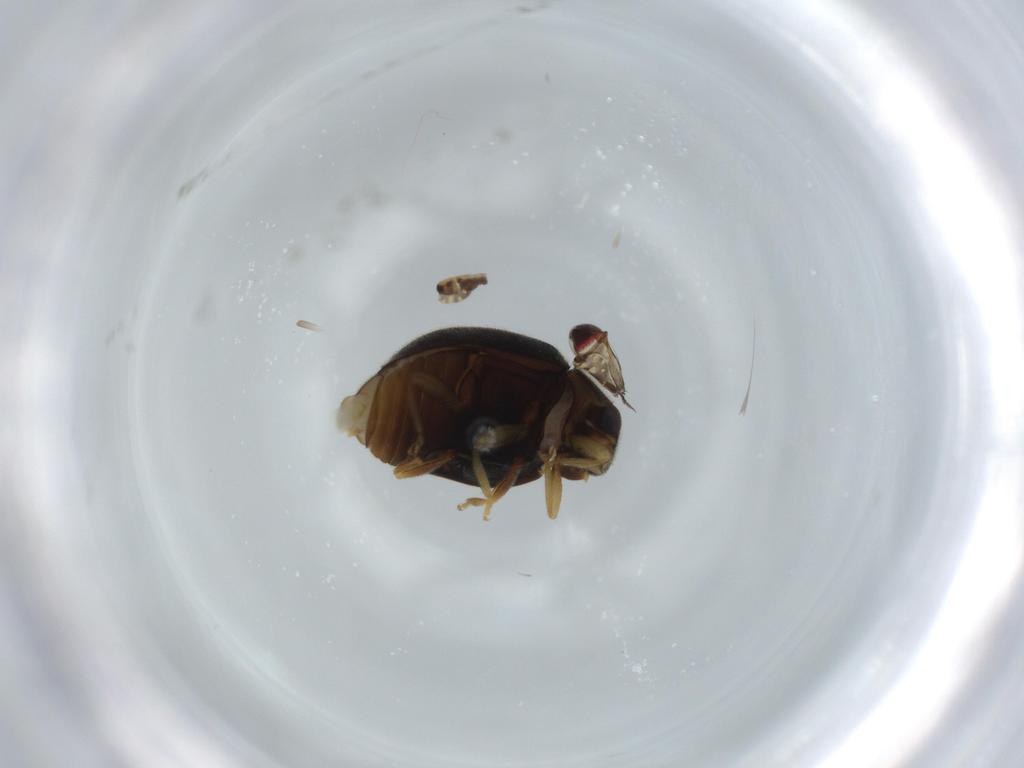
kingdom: Animalia
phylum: Arthropoda
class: Insecta
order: Coleoptera
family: Coccinellidae
